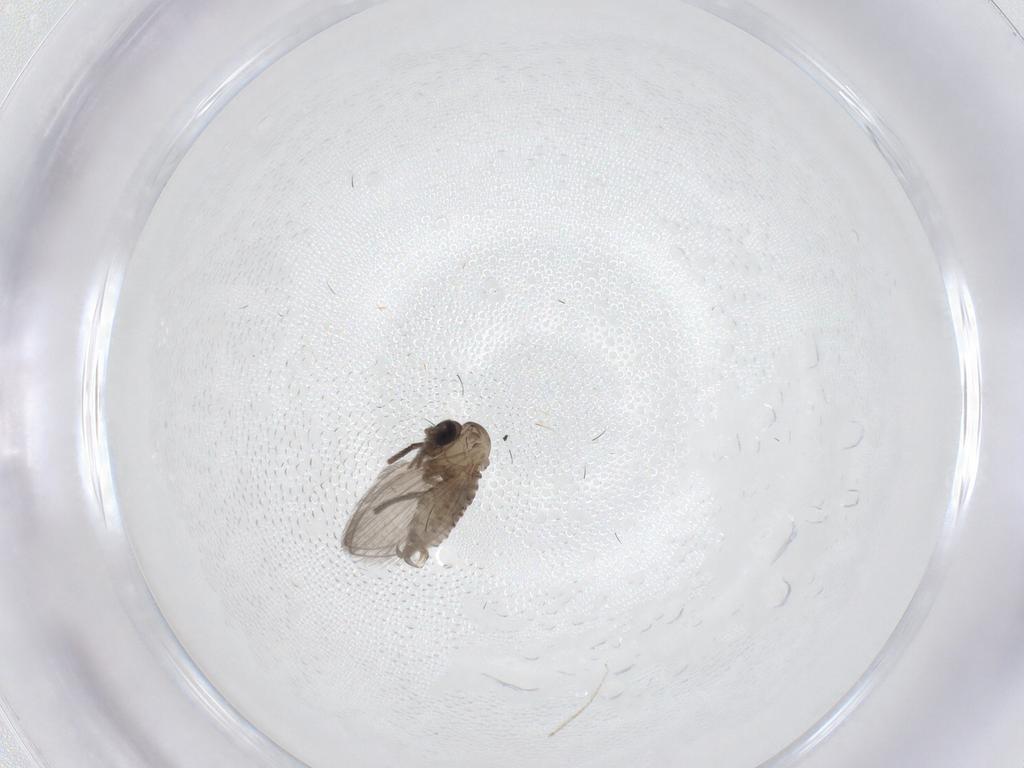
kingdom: Animalia
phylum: Arthropoda
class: Insecta
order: Diptera
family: Psychodidae
